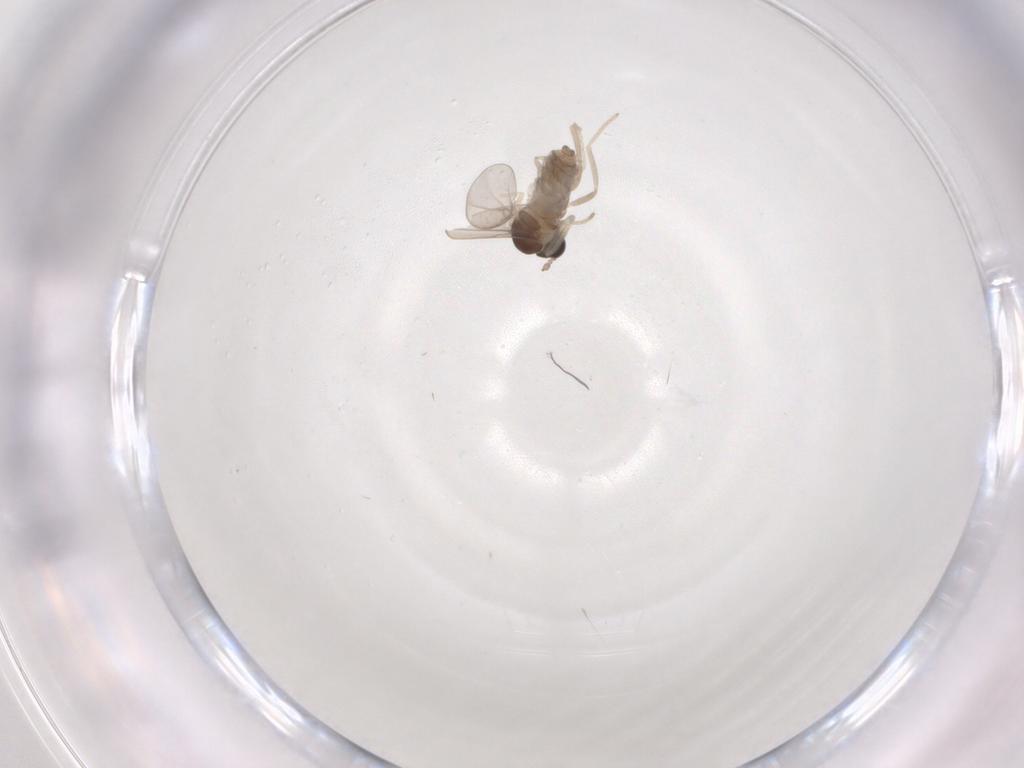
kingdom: Animalia
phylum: Arthropoda
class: Insecta
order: Diptera
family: Cecidomyiidae
